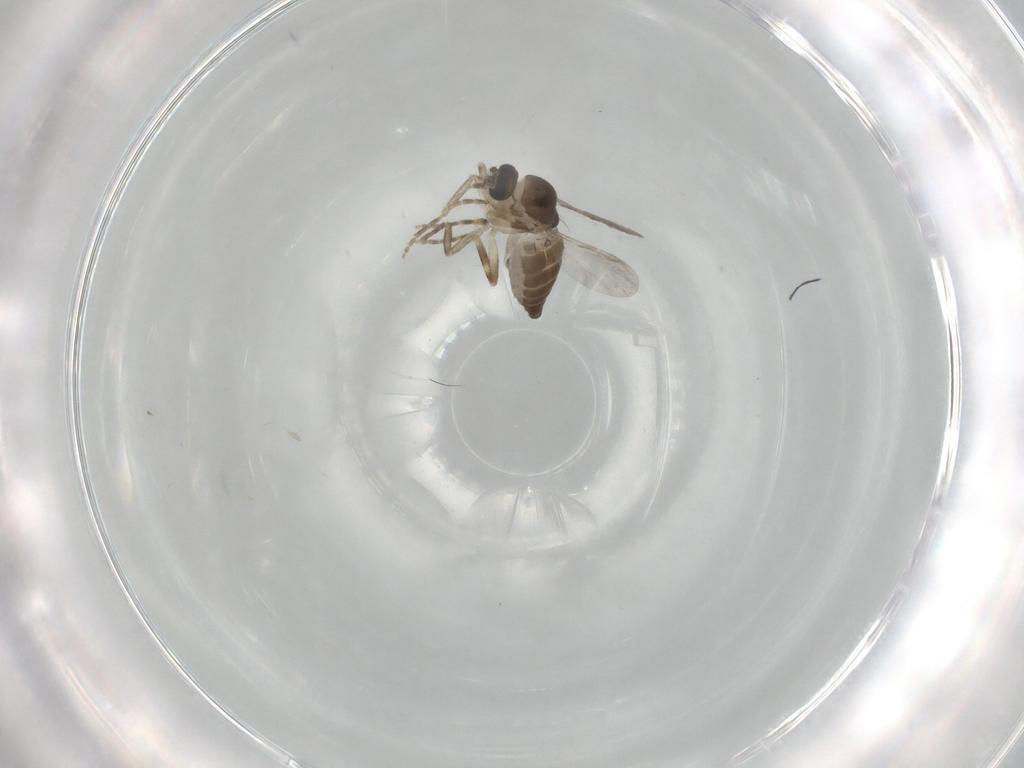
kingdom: Animalia
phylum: Arthropoda
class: Insecta
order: Diptera
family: Ceratopogonidae
